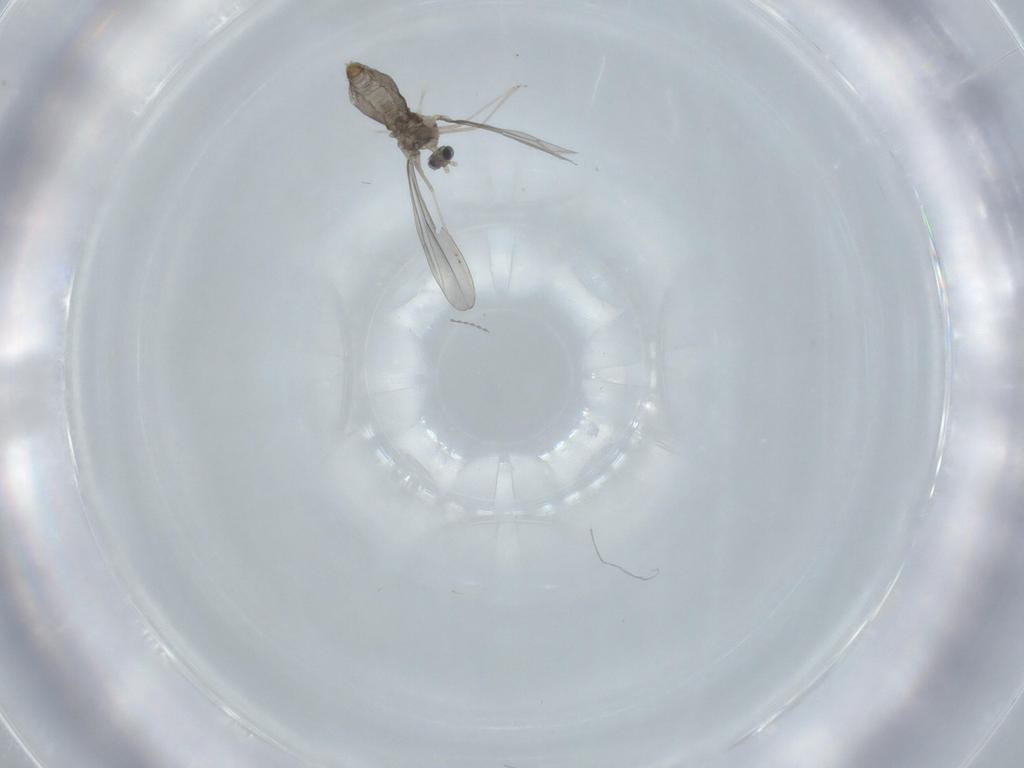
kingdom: Animalia
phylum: Arthropoda
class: Insecta
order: Diptera
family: Cecidomyiidae
